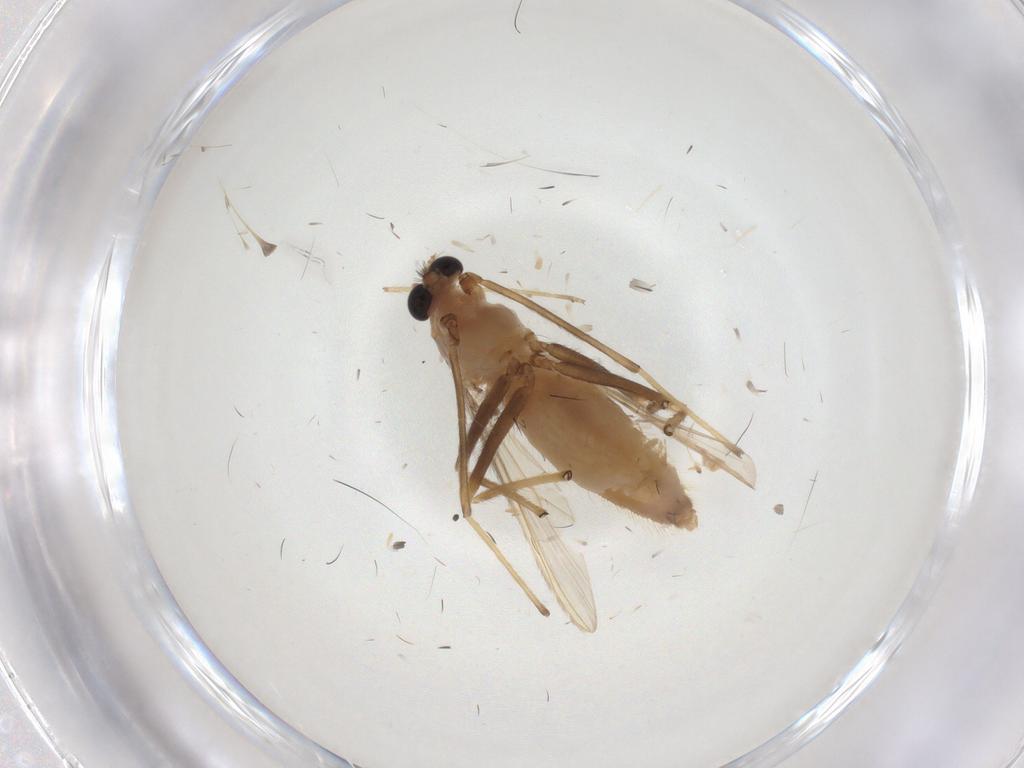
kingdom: Animalia
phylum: Arthropoda
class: Insecta
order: Diptera
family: Chironomidae
